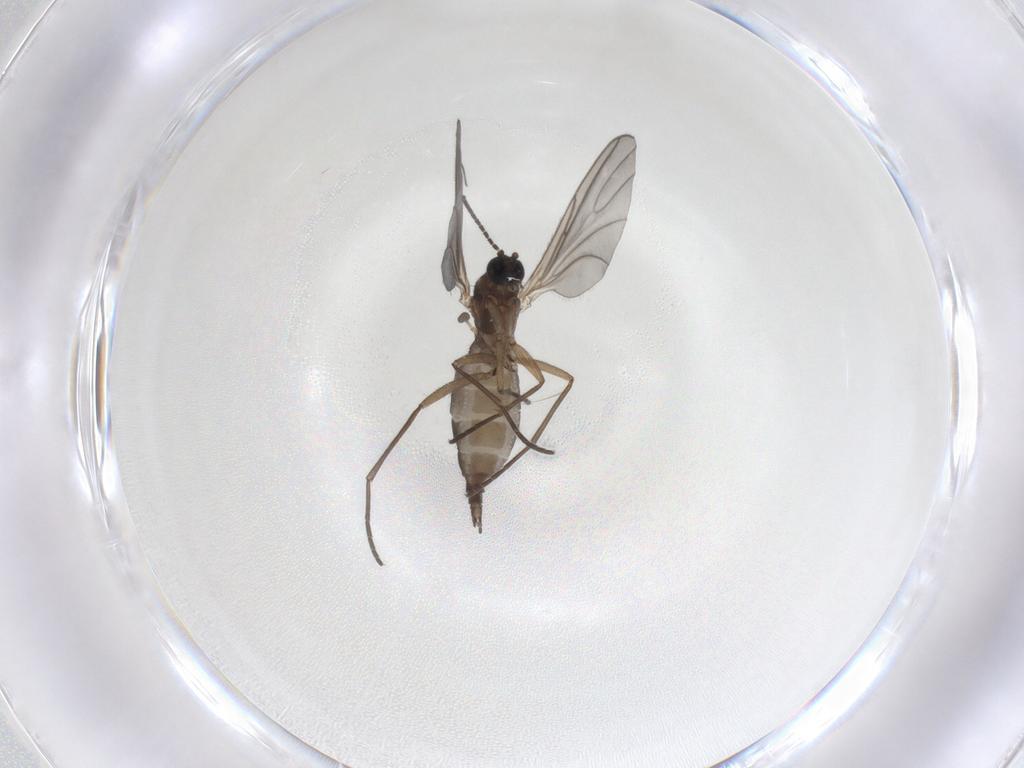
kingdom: Animalia
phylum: Arthropoda
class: Insecta
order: Diptera
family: Sciaridae
